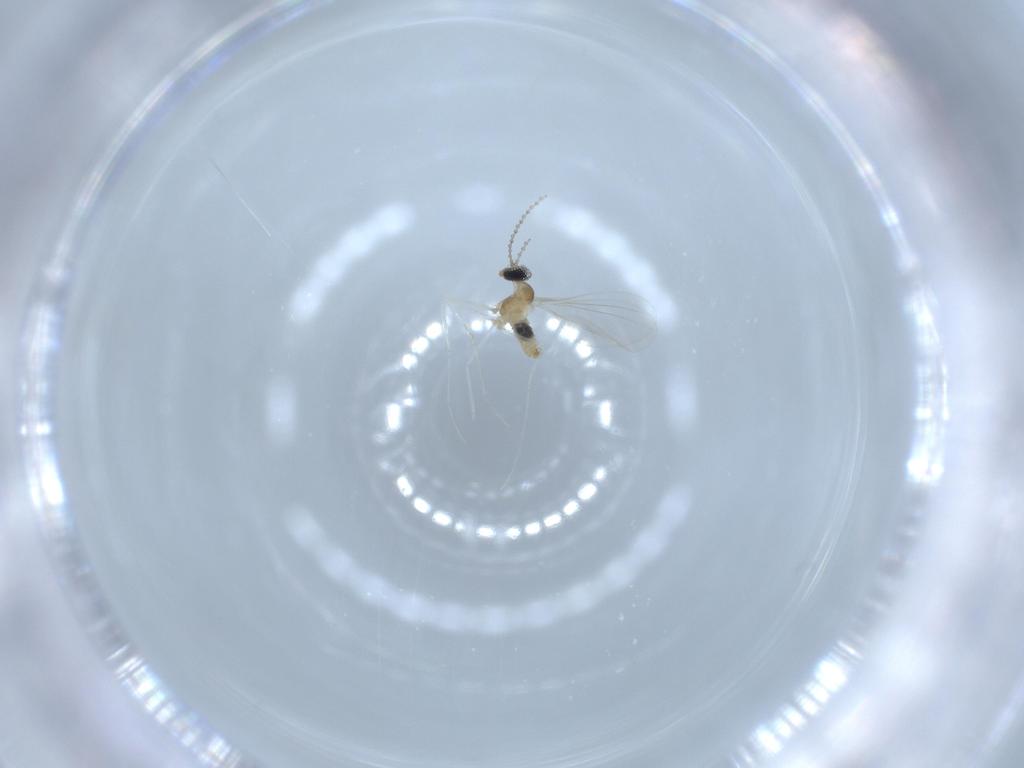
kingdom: Animalia
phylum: Arthropoda
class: Insecta
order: Diptera
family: Cecidomyiidae
